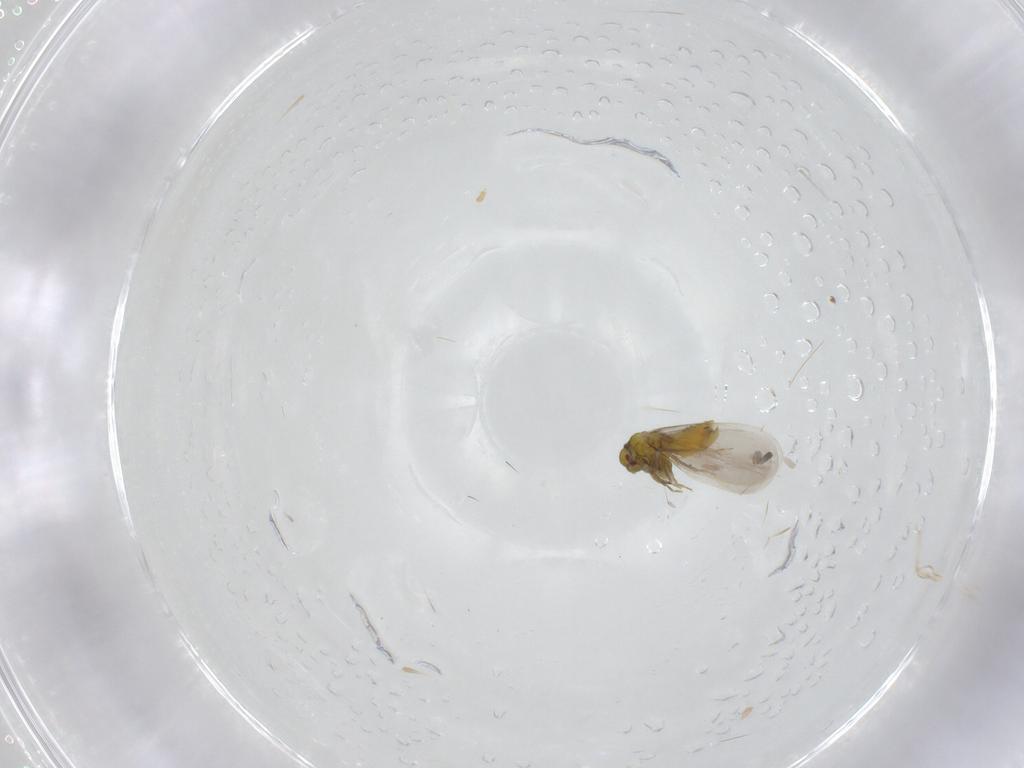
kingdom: Animalia
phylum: Arthropoda
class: Insecta
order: Hemiptera
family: Aleyrodidae
